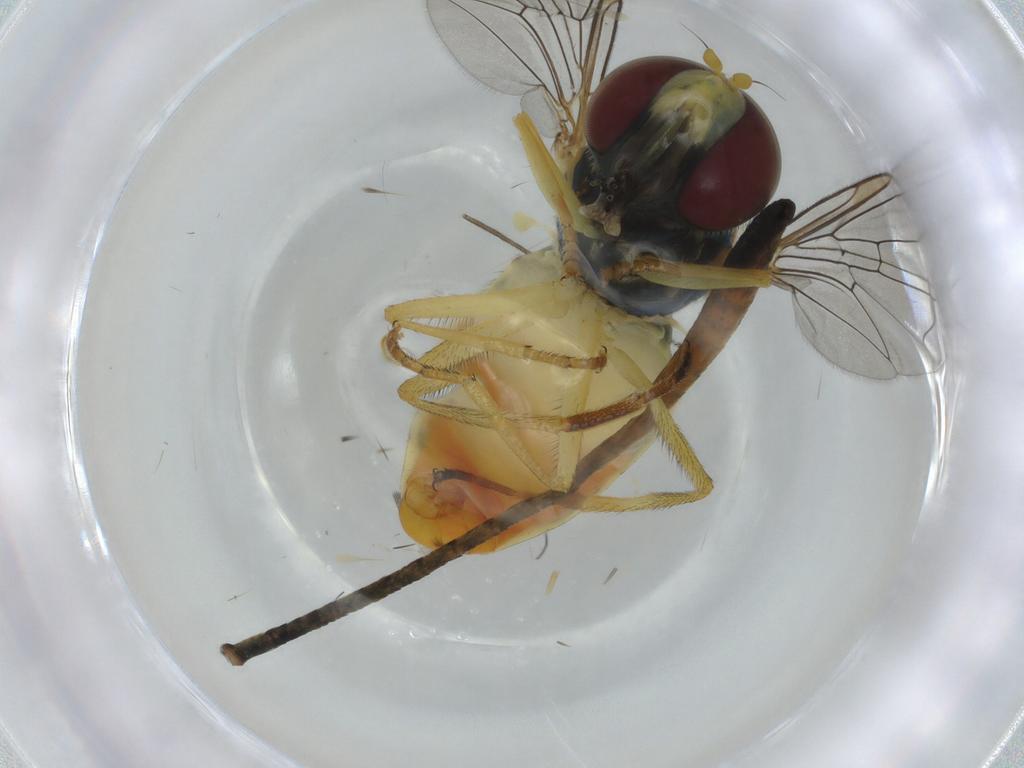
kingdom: Animalia
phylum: Arthropoda
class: Insecta
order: Diptera
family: Syrphidae
